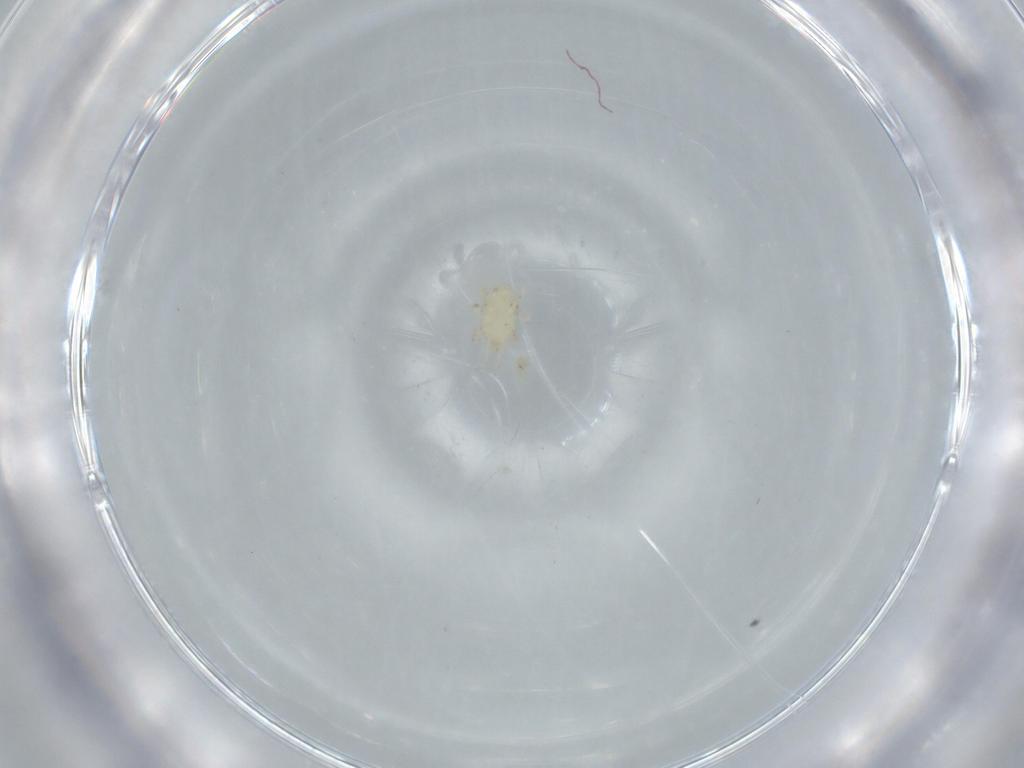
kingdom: Animalia
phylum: Arthropoda
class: Arachnida
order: Mesostigmata
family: Laelapidae
